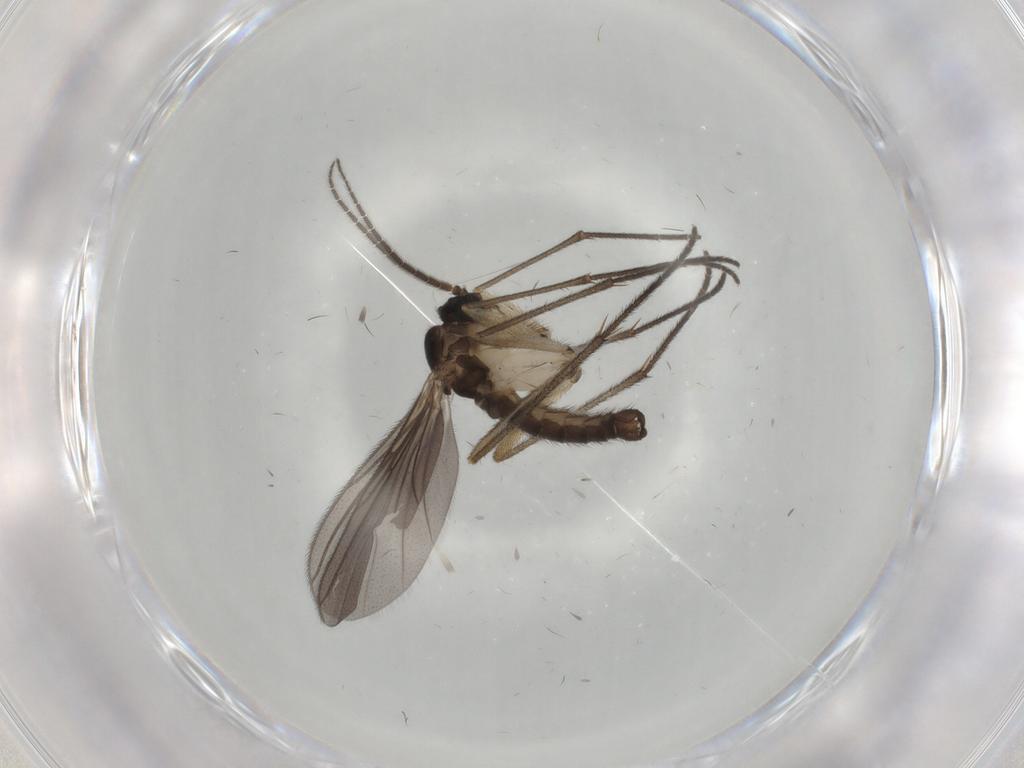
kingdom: Animalia
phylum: Arthropoda
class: Insecta
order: Diptera
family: Sciaridae
